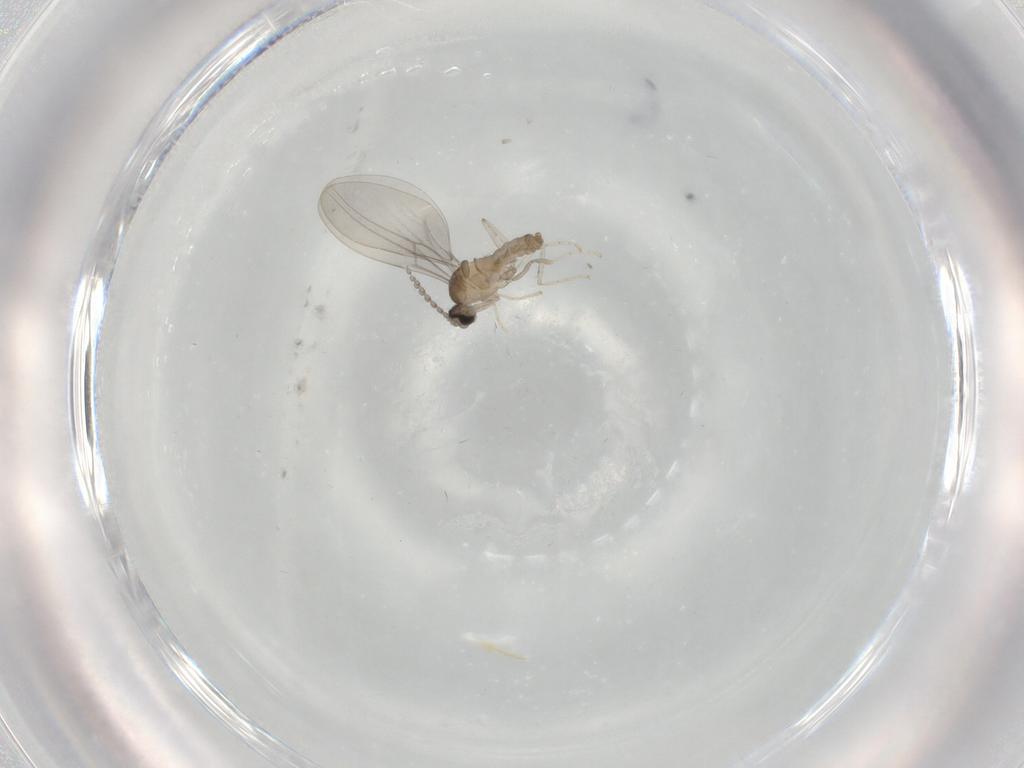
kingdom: Animalia
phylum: Arthropoda
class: Insecta
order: Diptera
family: Cecidomyiidae
